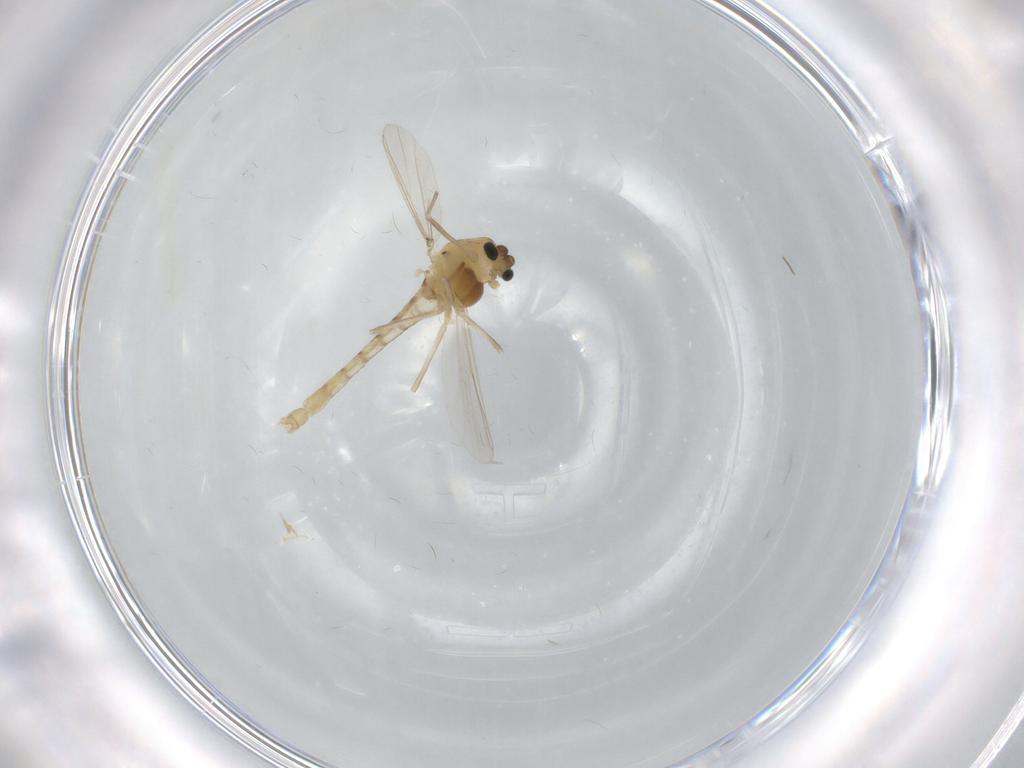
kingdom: Animalia
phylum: Arthropoda
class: Insecta
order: Diptera
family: Chironomidae
